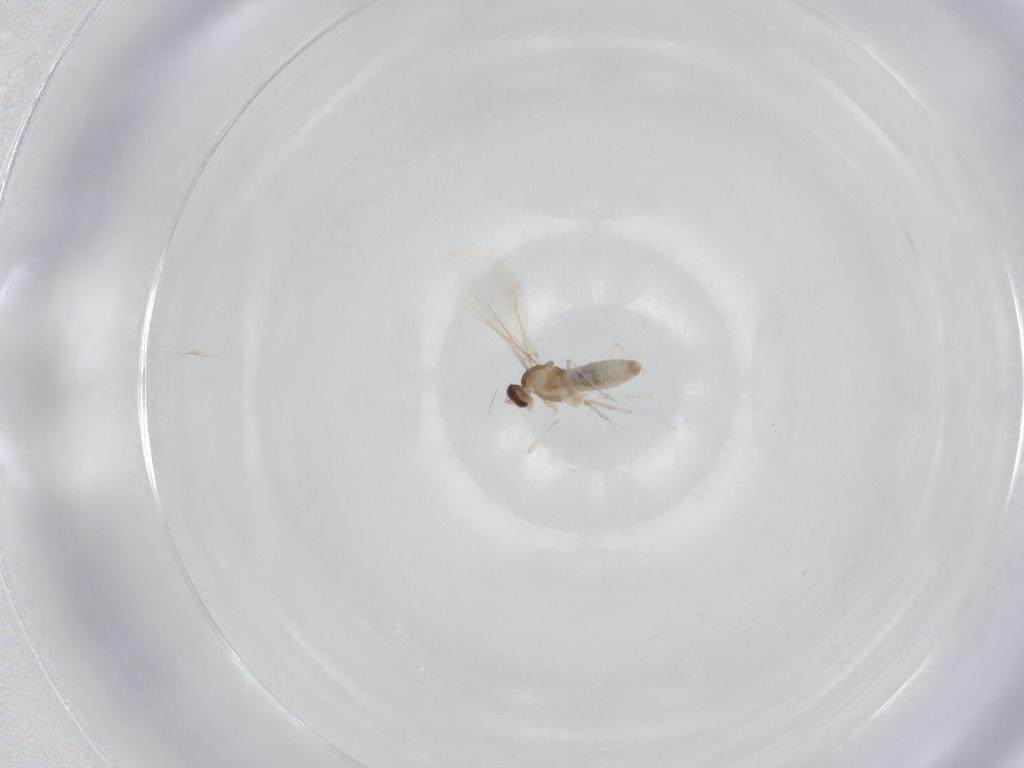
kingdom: Animalia
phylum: Arthropoda
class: Insecta
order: Diptera
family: Cecidomyiidae
